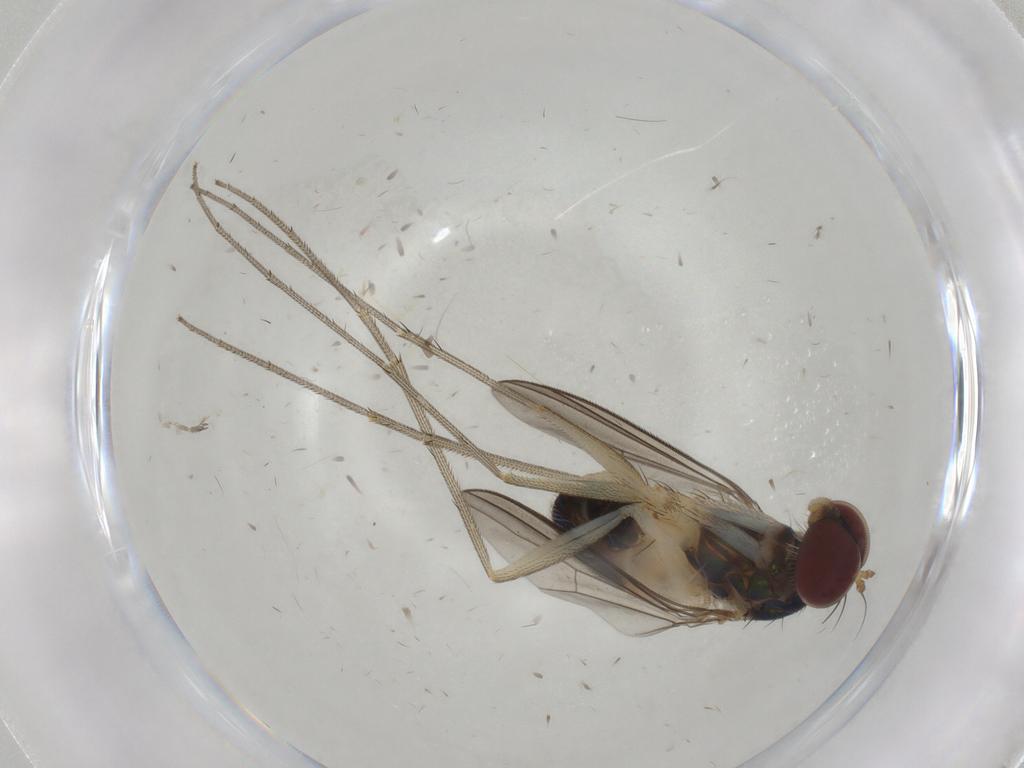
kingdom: Animalia
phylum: Arthropoda
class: Insecta
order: Diptera
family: Dolichopodidae
